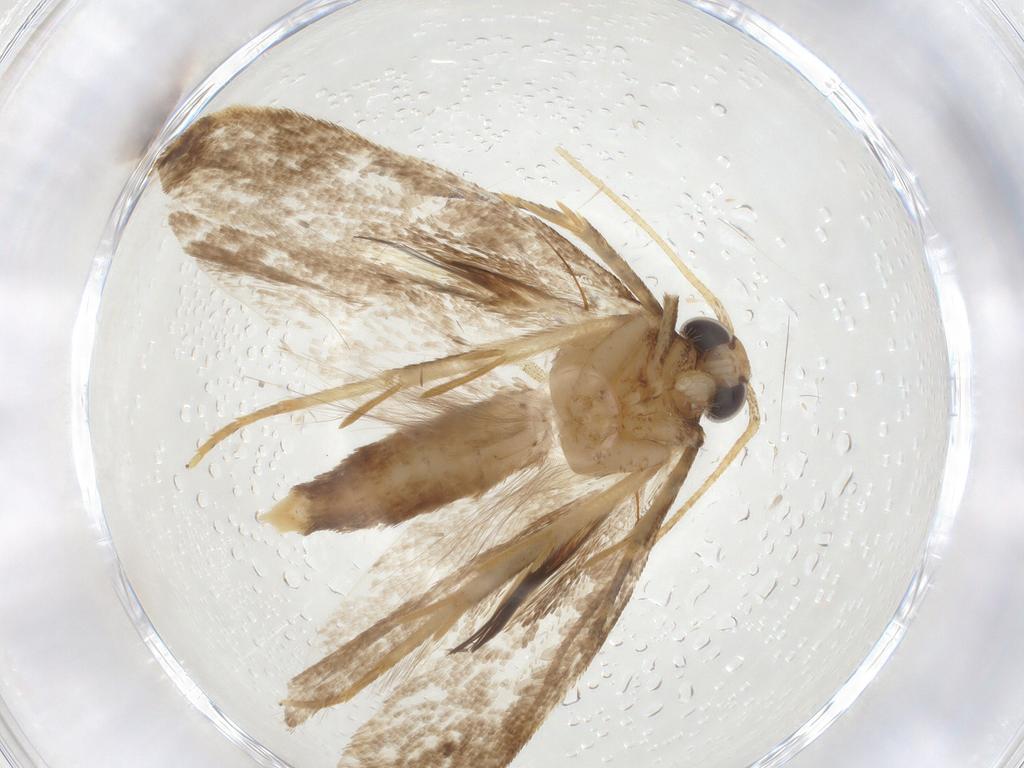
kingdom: Animalia
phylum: Arthropoda
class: Insecta
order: Lepidoptera
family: Gelechiidae
